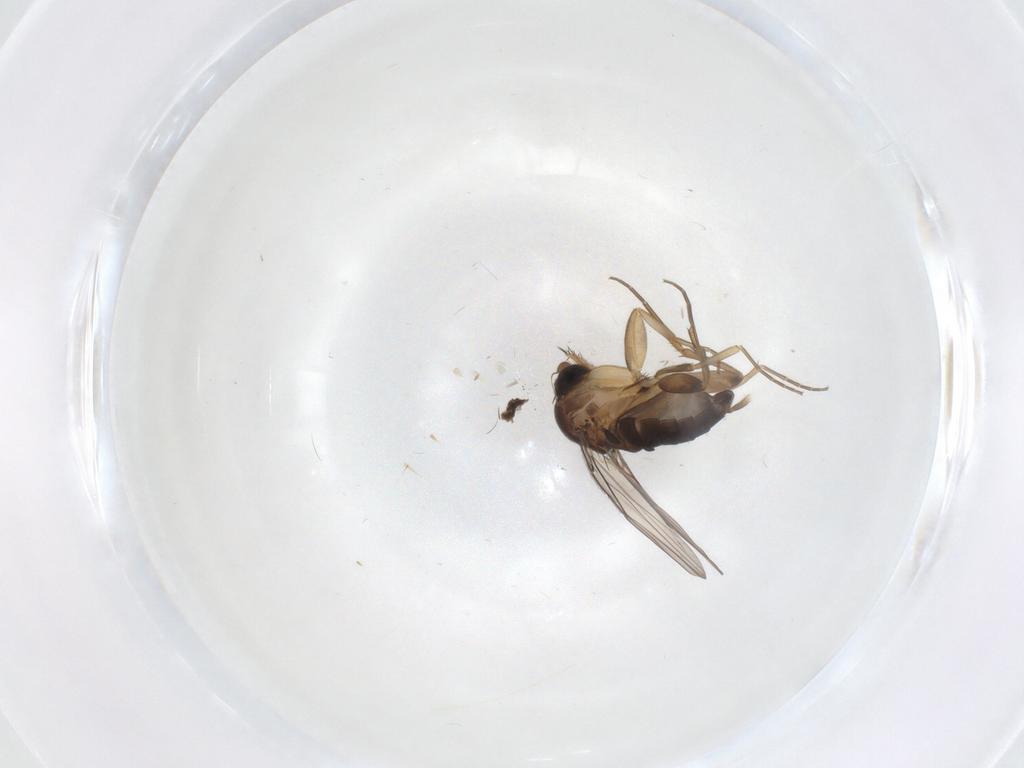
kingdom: Animalia
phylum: Arthropoda
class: Insecta
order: Diptera
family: Phoridae
